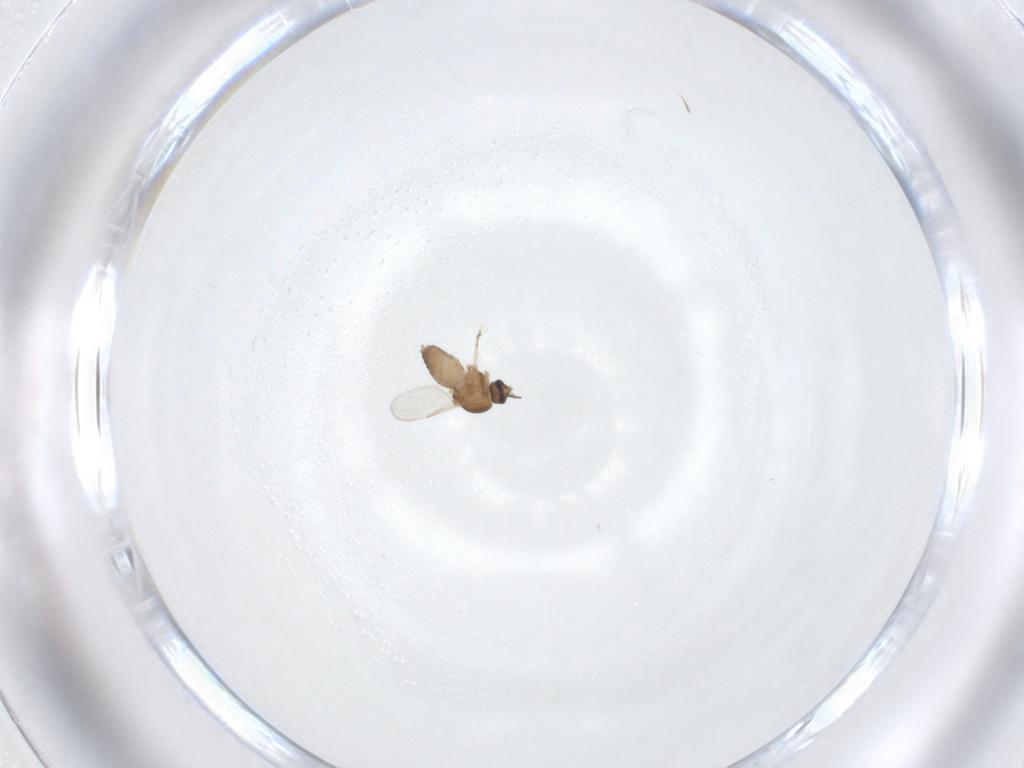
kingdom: Animalia
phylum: Arthropoda
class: Insecta
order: Diptera
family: Ceratopogonidae
